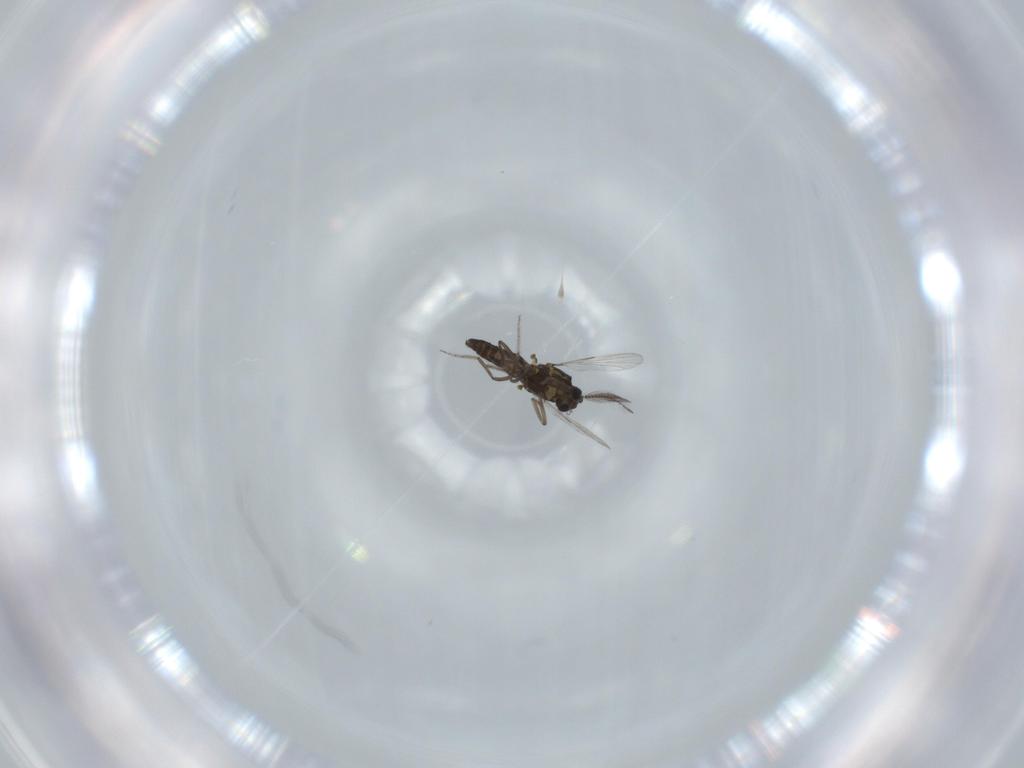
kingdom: Animalia
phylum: Arthropoda
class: Insecta
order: Diptera
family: Ceratopogonidae
